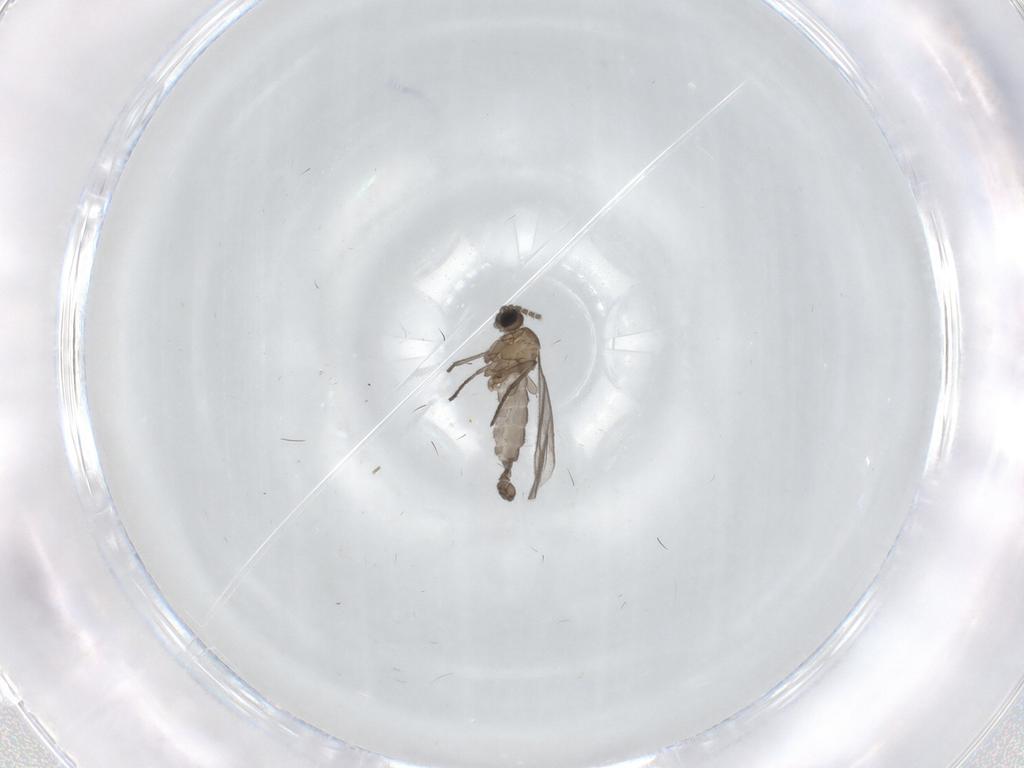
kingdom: Animalia
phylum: Arthropoda
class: Insecta
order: Diptera
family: Sciaridae
